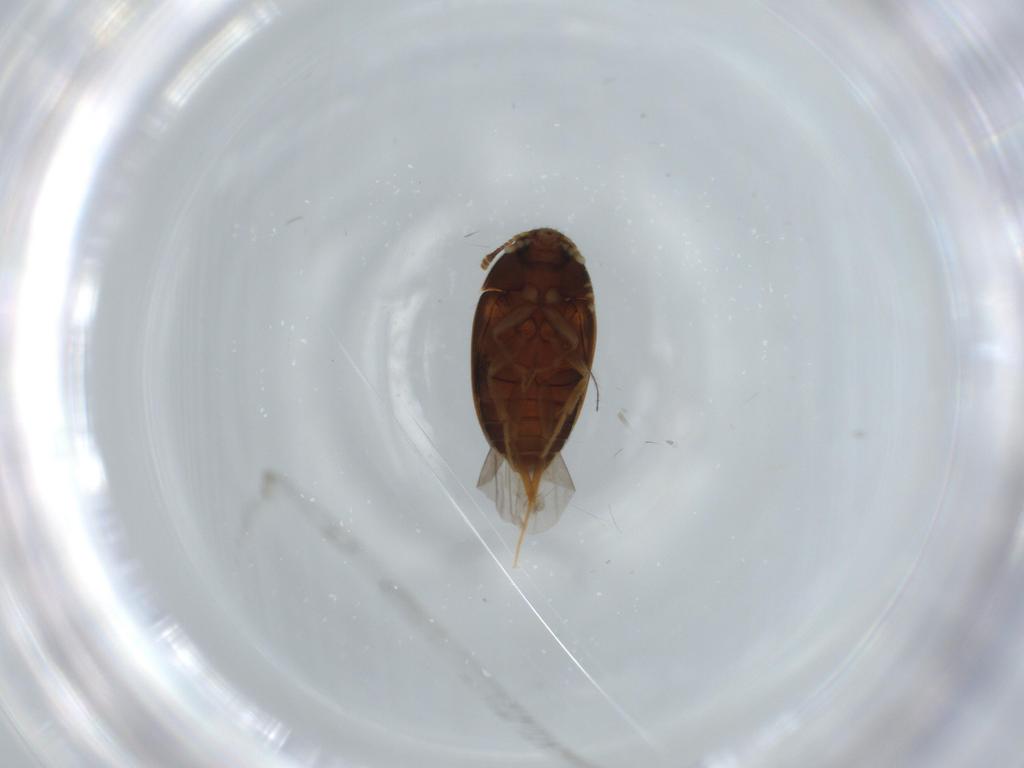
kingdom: Animalia
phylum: Arthropoda
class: Insecta
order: Coleoptera
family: Mycetophagidae
